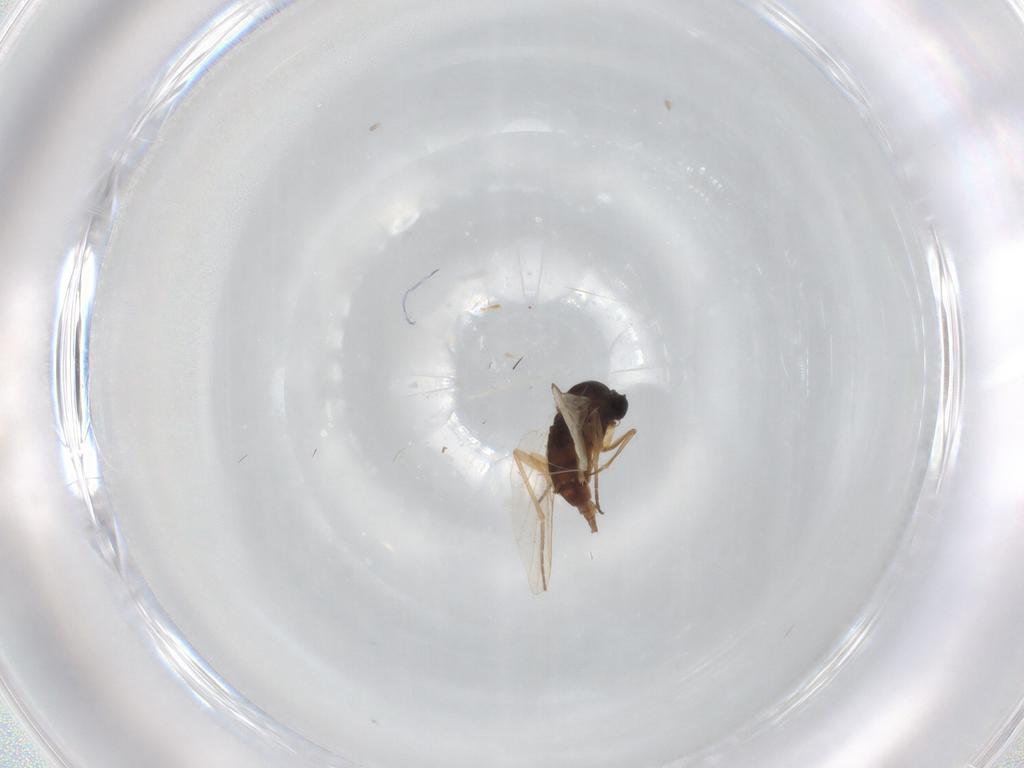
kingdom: Animalia
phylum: Arthropoda
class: Insecta
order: Diptera
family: Sciaridae
